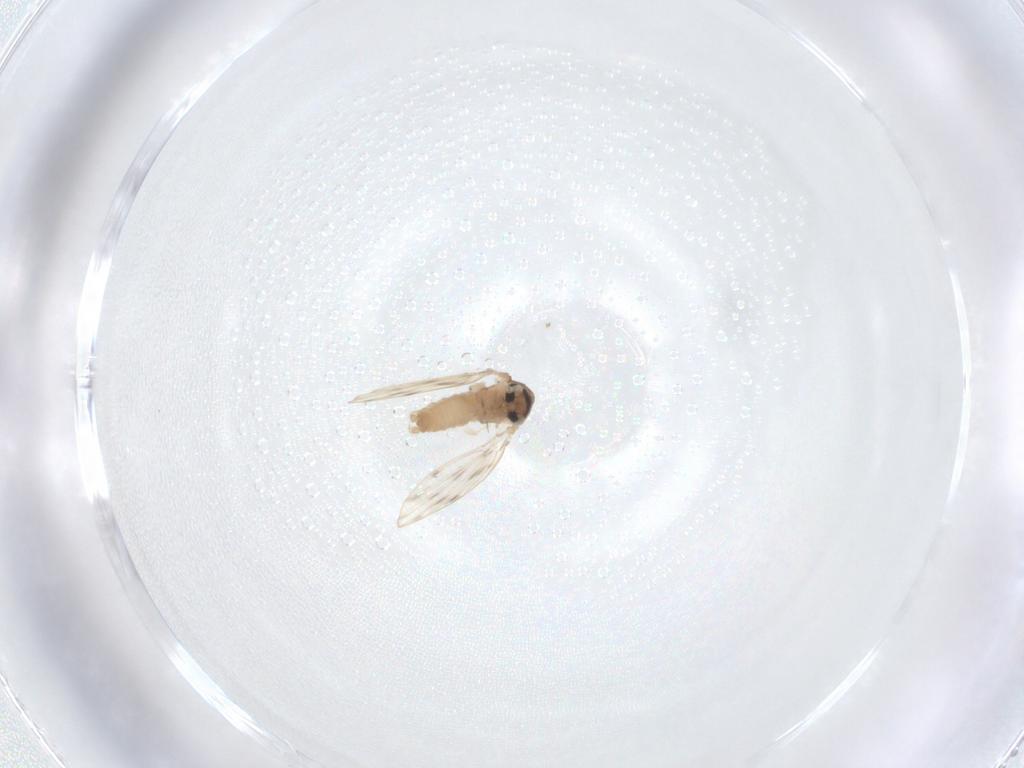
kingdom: Animalia
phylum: Arthropoda
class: Insecta
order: Diptera
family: Psychodidae
